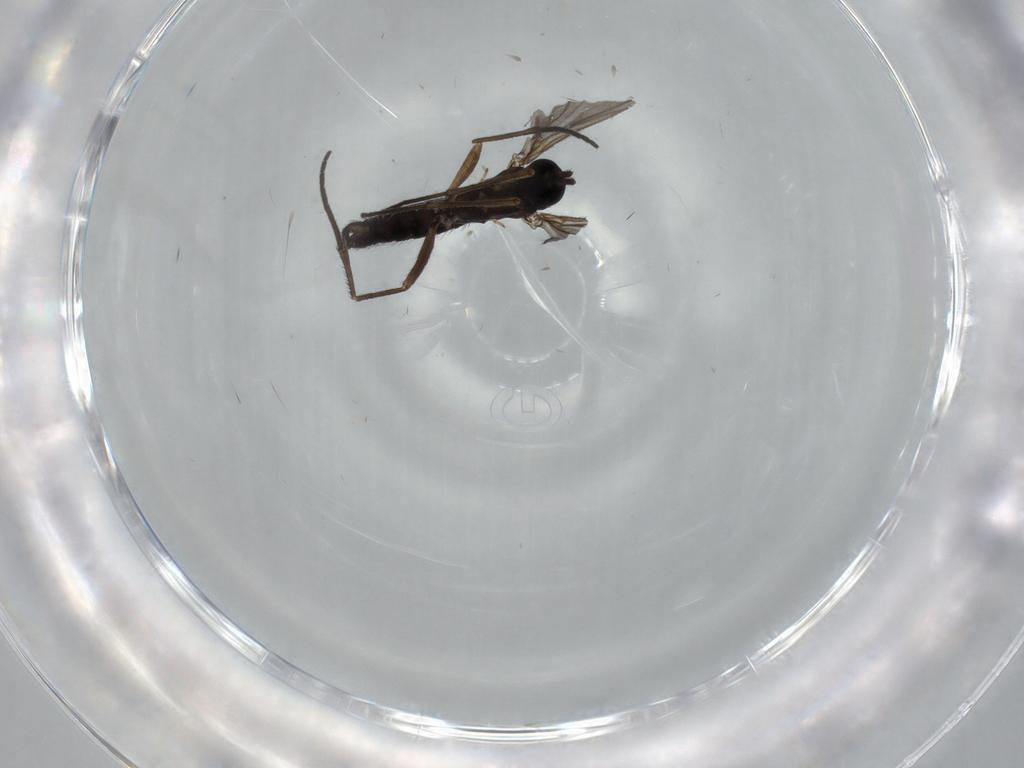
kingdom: Animalia
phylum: Arthropoda
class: Insecta
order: Diptera
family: Sciaridae
